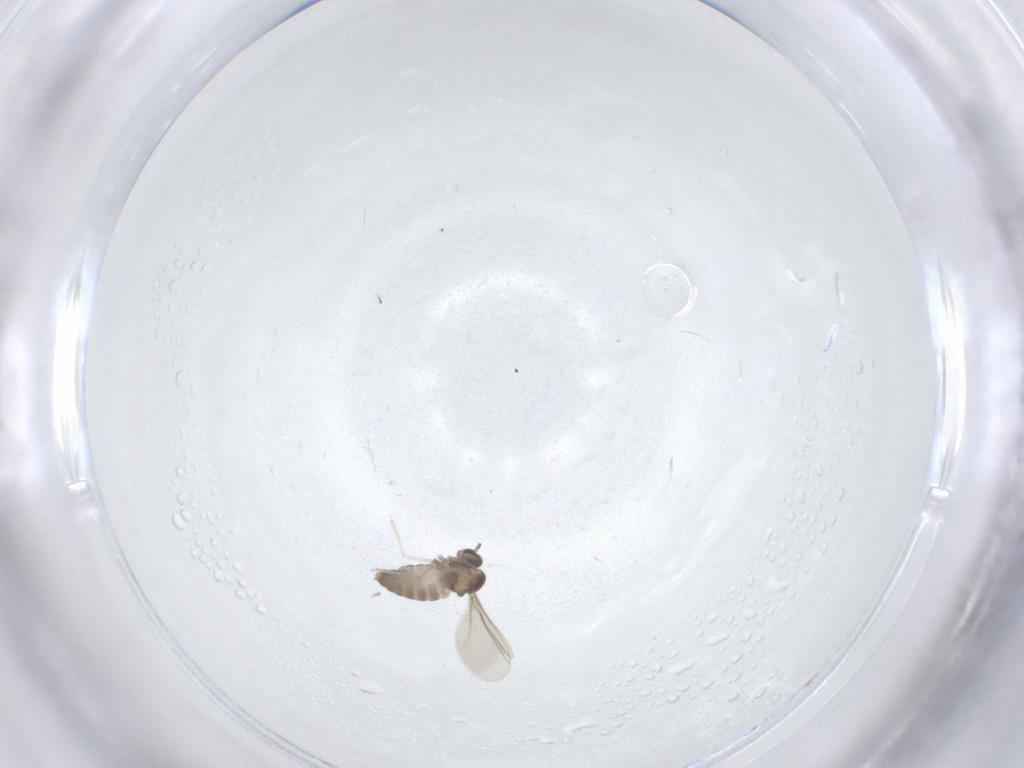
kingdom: Animalia
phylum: Arthropoda
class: Insecta
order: Diptera
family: Cecidomyiidae
